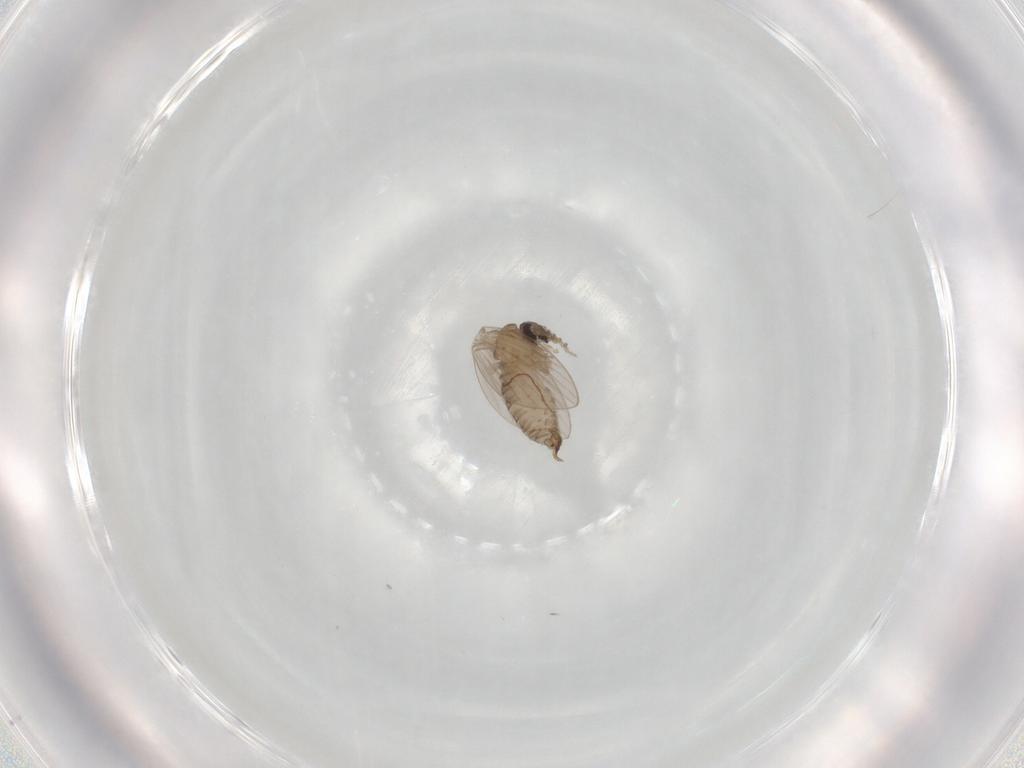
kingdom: Animalia
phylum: Arthropoda
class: Insecta
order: Diptera
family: Psychodidae
